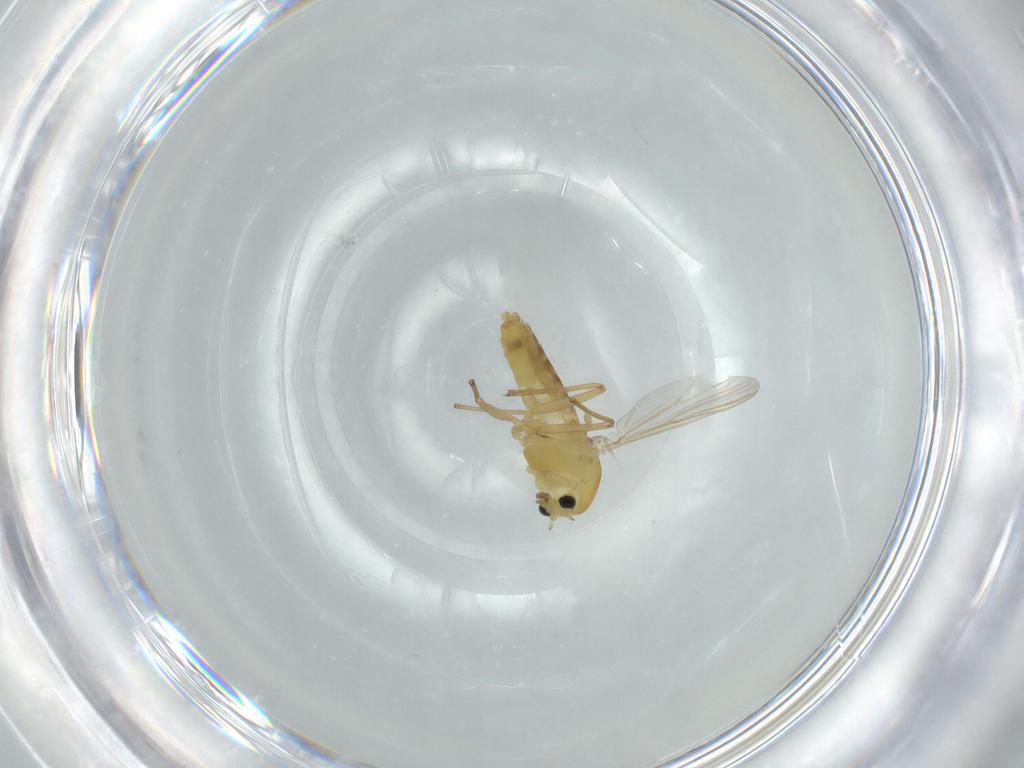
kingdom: Animalia
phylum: Arthropoda
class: Insecta
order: Diptera
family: Chironomidae
